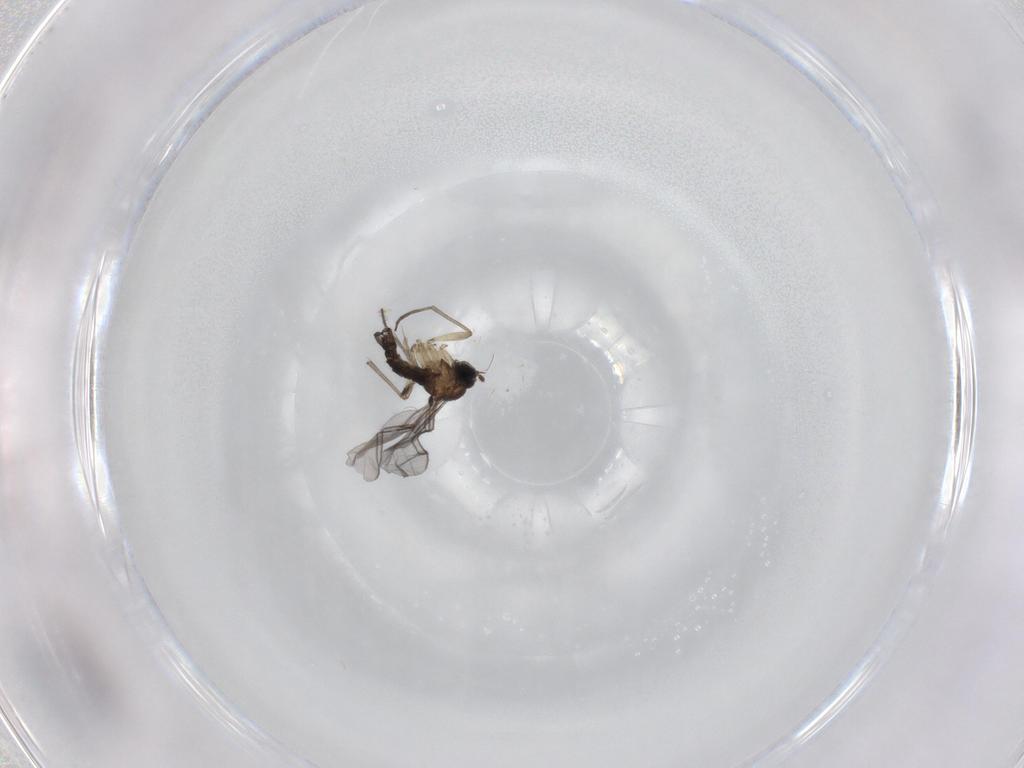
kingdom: Animalia
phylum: Arthropoda
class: Insecta
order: Diptera
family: Sciaridae
